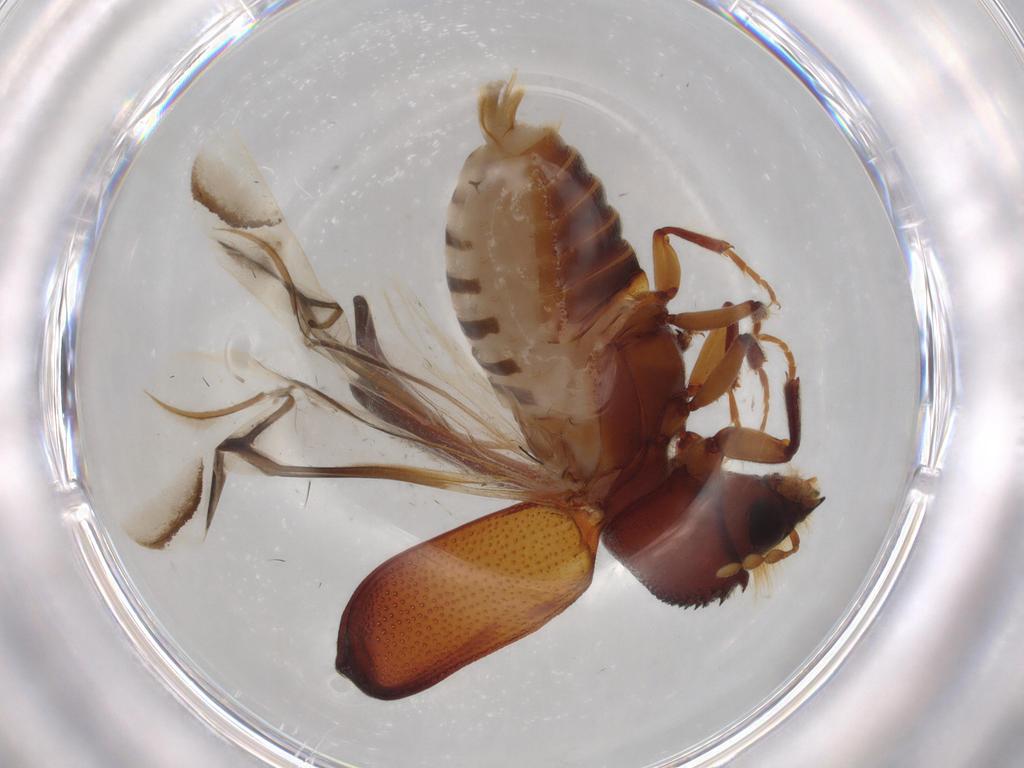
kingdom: Animalia
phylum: Arthropoda
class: Insecta
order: Coleoptera
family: Bostrichidae
